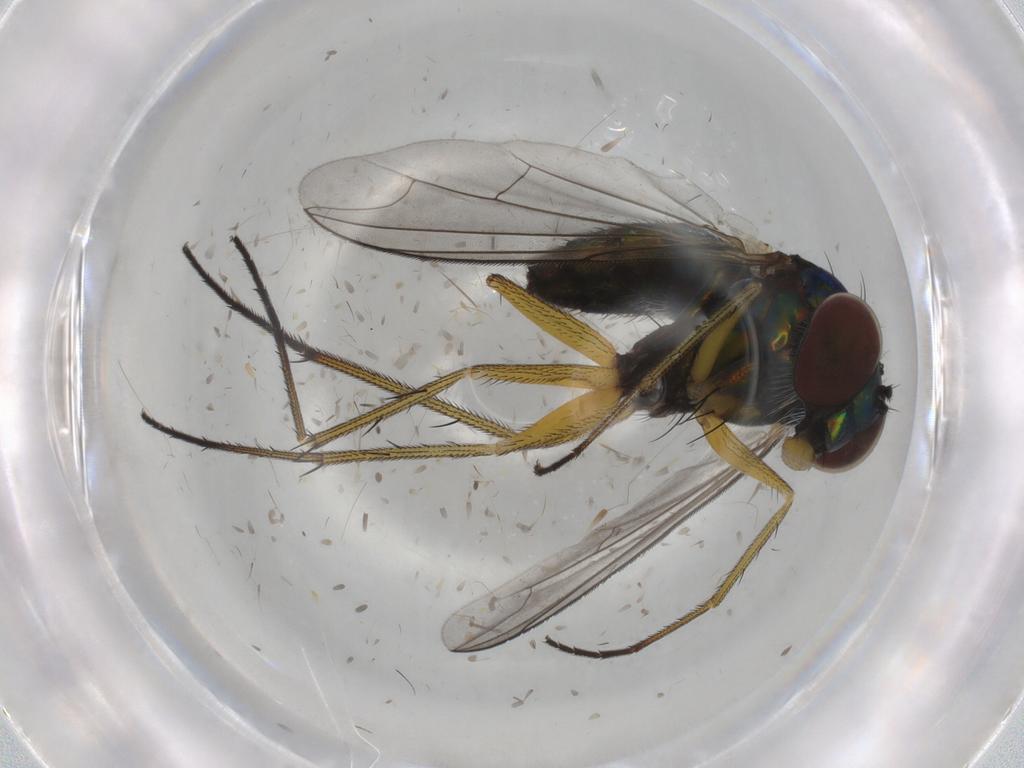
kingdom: Animalia
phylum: Arthropoda
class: Insecta
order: Diptera
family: Dolichopodidae
